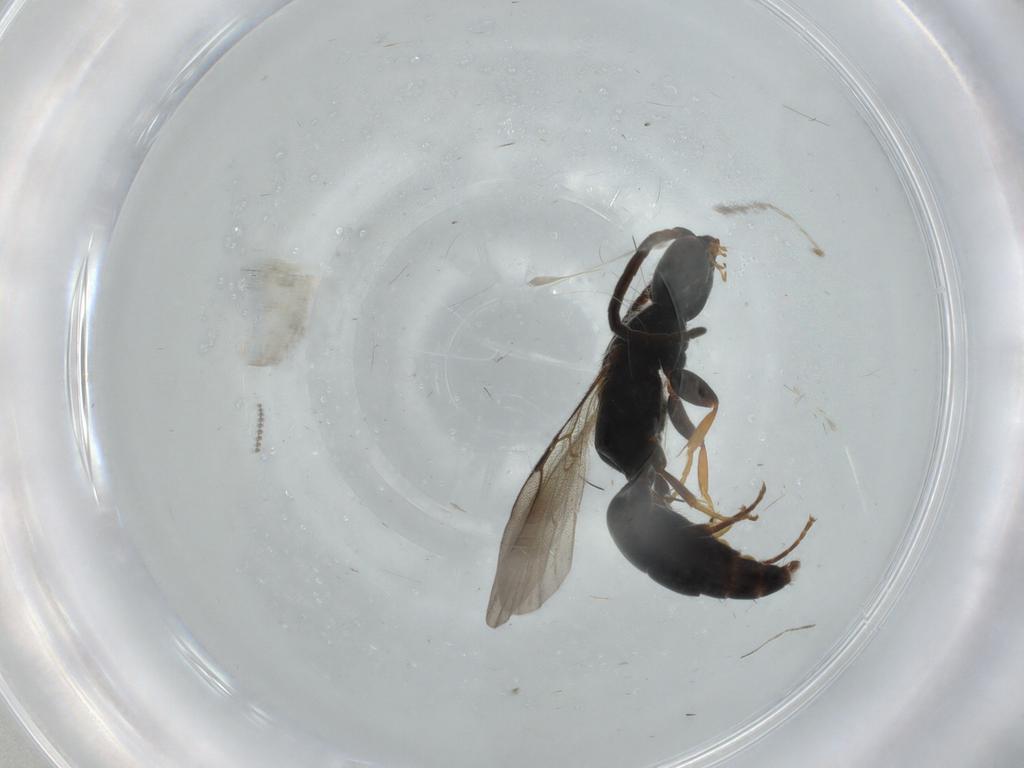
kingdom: Animalia
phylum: Arthropoda
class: Insecta
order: Hymenoptera
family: Bethylidae
